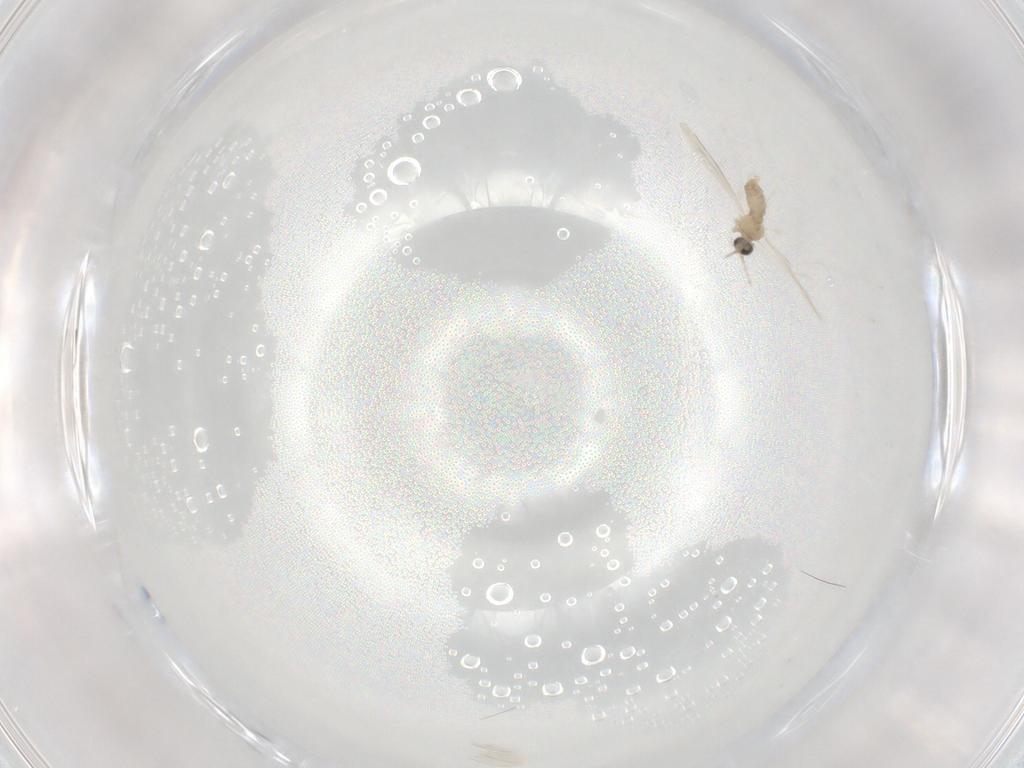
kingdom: Animalia
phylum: Arthropoda
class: Insecta
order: Diptera
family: Cecidomyiidae
